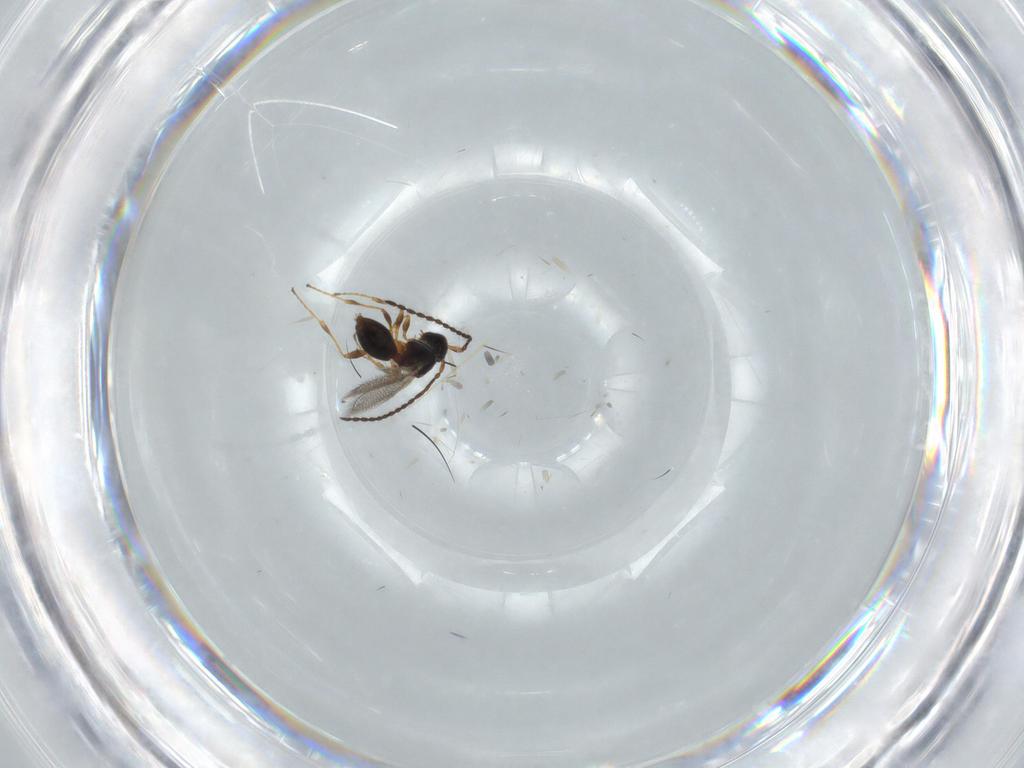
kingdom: Animalia
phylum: Arthropoda
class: Insecta
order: Hymenoptera
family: Diapriidae
